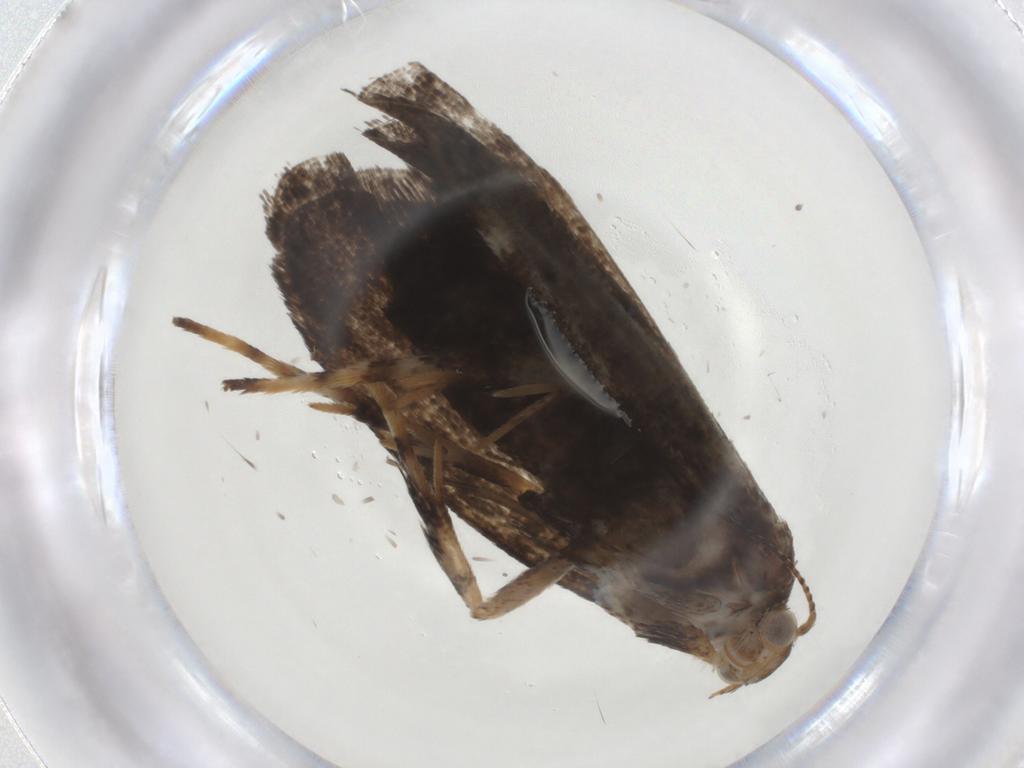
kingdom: Animalia
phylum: Arthropoda
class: Insecta
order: Lepidoptera
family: Choreutidae
